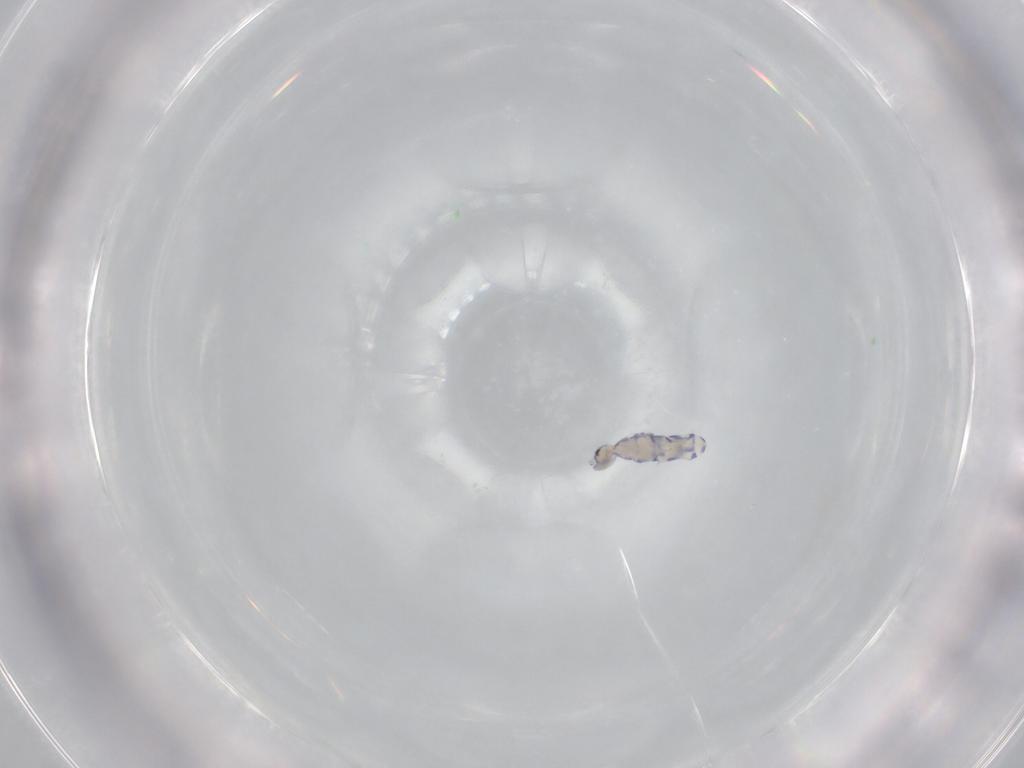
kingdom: Animalia
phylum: Arthropoda
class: Collembola
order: Entomobryomorpha
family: Entomobryidae
